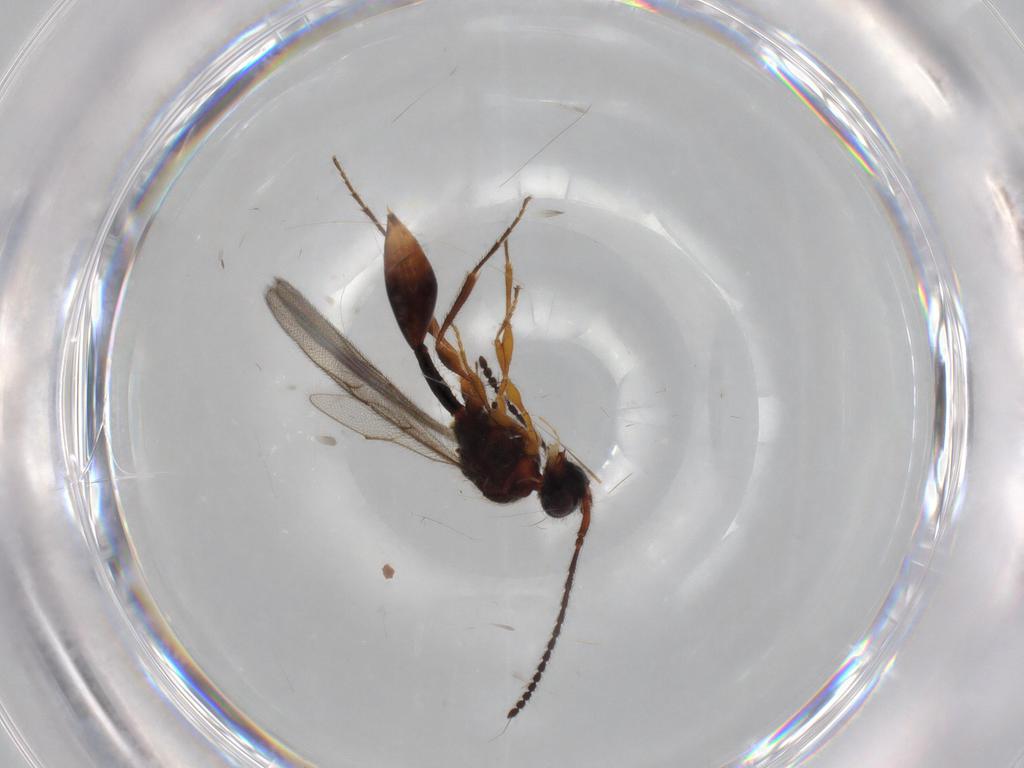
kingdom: Animalia
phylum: Arthropoda
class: Insecta
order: Hymenoptera
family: Diapriidae
